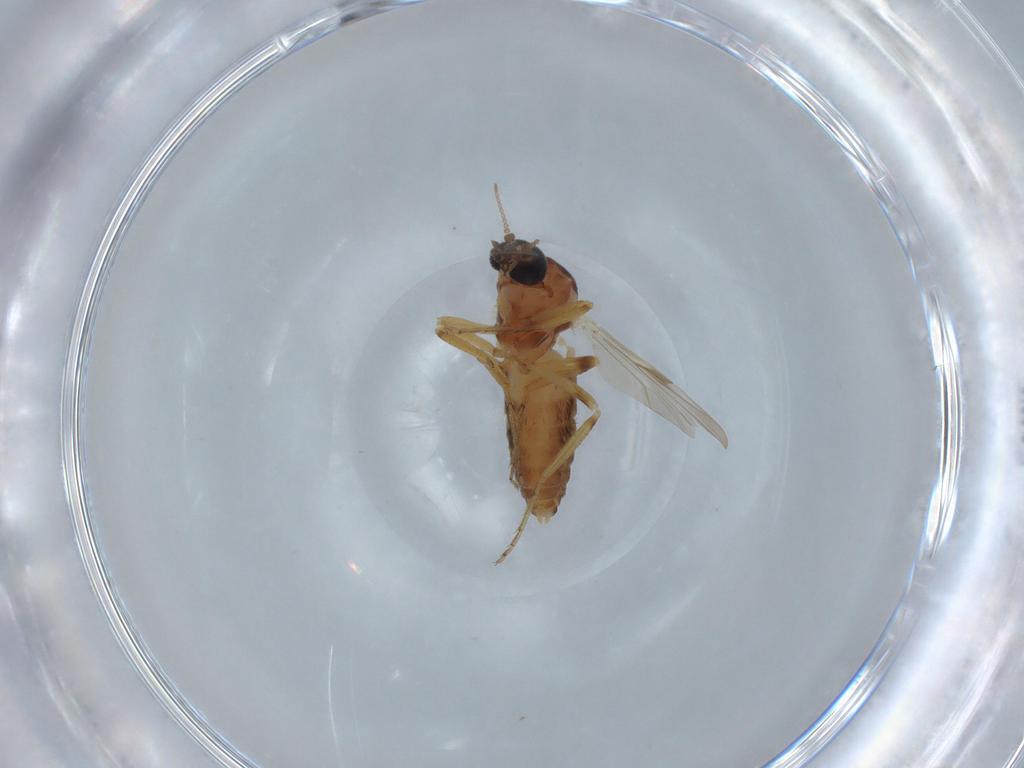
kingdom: Animalia
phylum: Arthropoda
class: Insecta
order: Diptera
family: Ceratopogonidae
